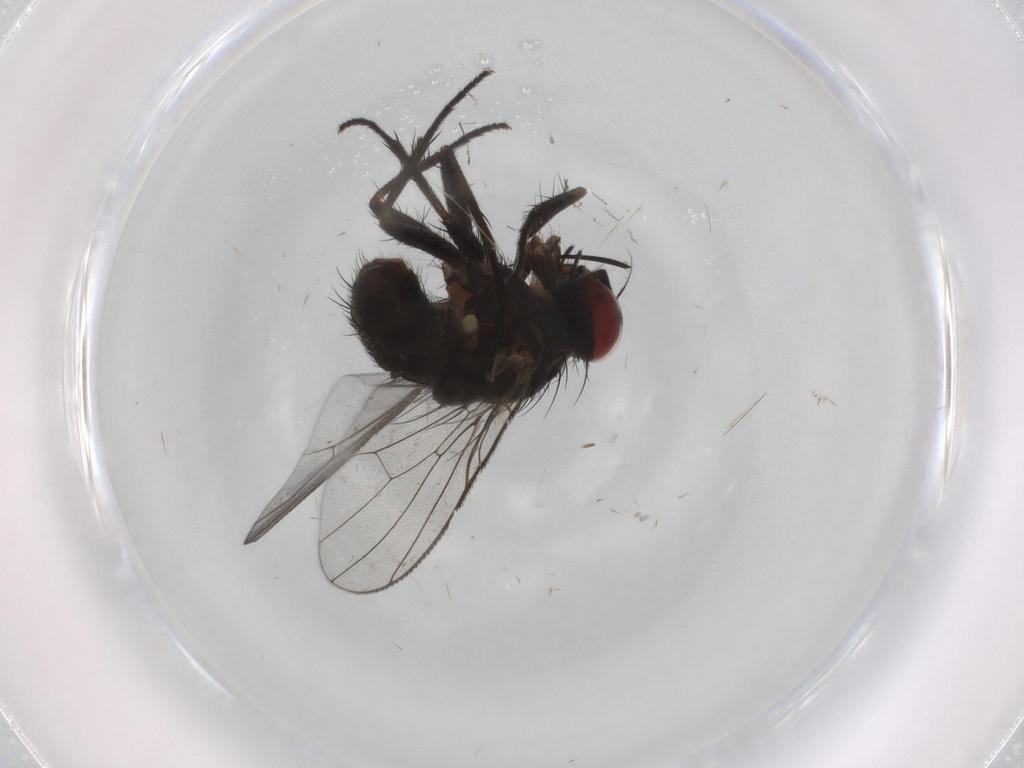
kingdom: Animalia
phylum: Arthropoda
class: Insecta
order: Diptera
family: Muscidae
